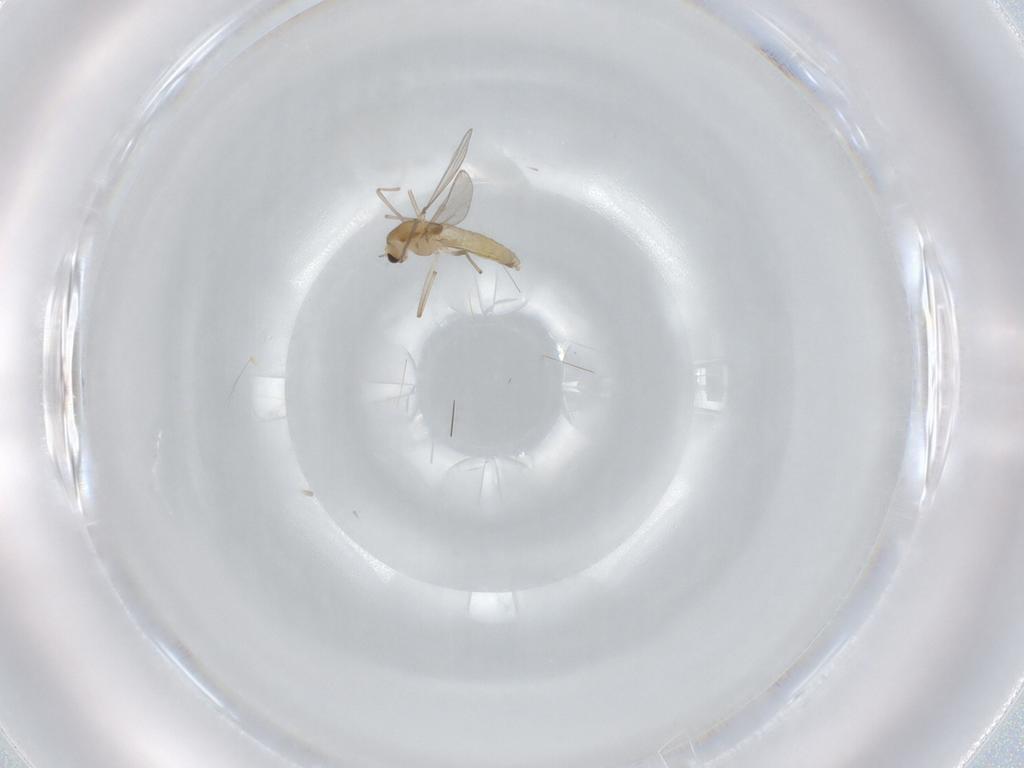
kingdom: Animalia
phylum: Arthropoda
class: Insecta
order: Diptera
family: Chironomidae
